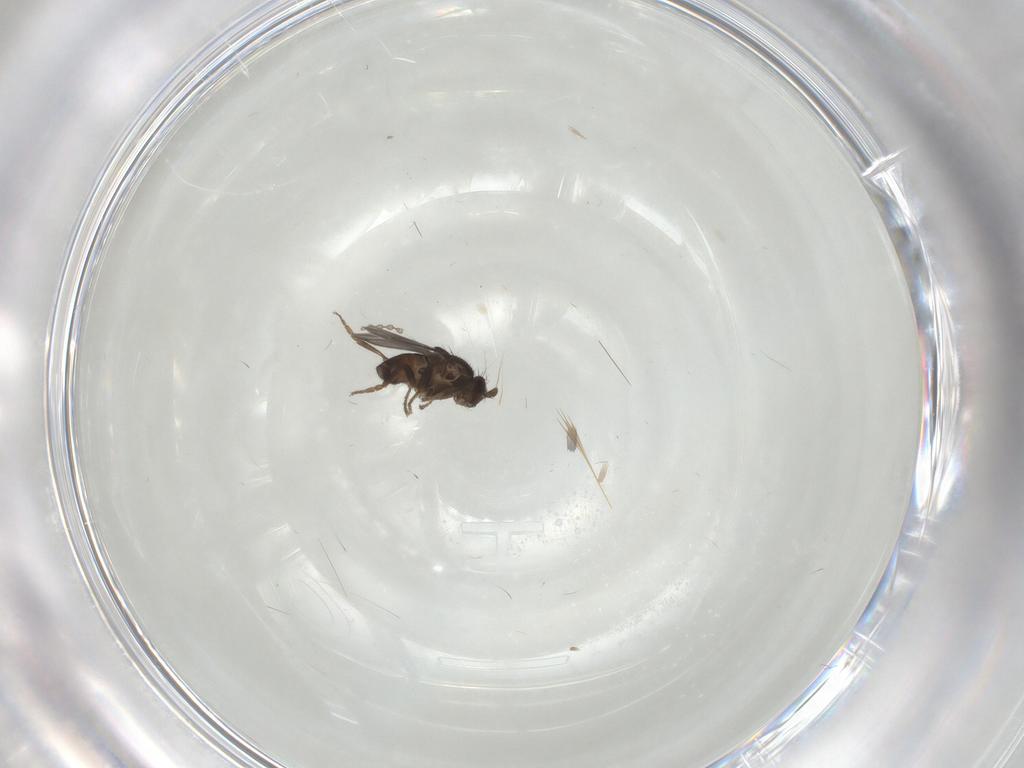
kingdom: Animalia
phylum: Arthropoda
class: Insecta
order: Diptera
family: Sphaeroceridae
